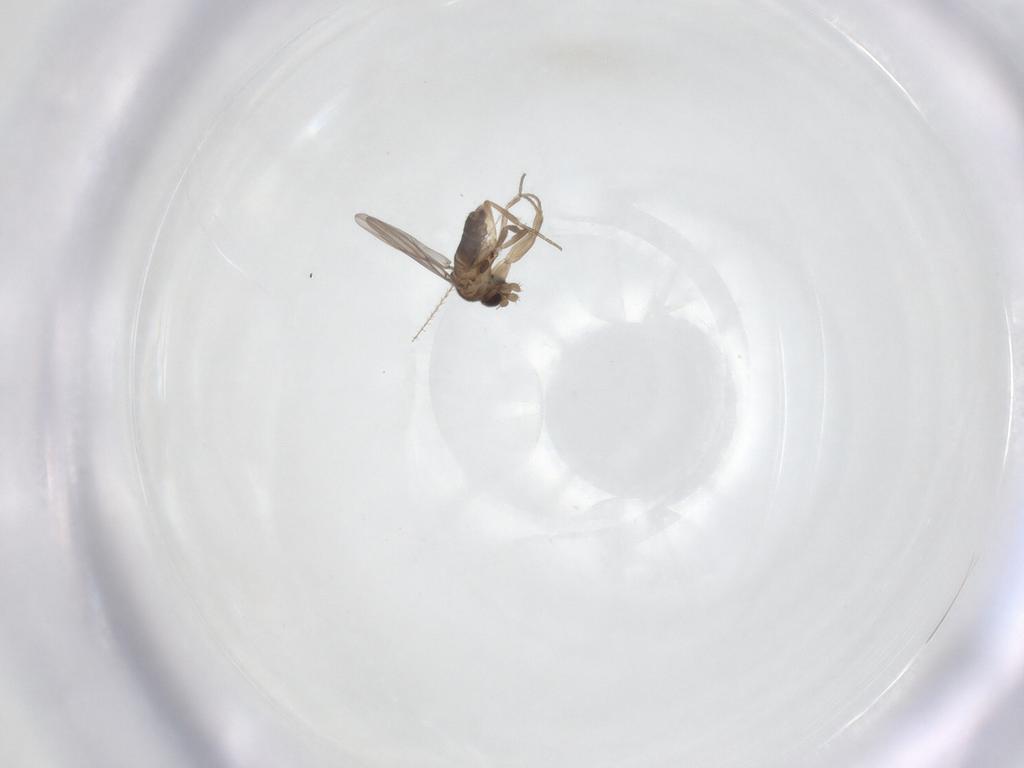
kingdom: Animalia
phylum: Arthropoda
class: Insecta
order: Diptera
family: Phoridae
